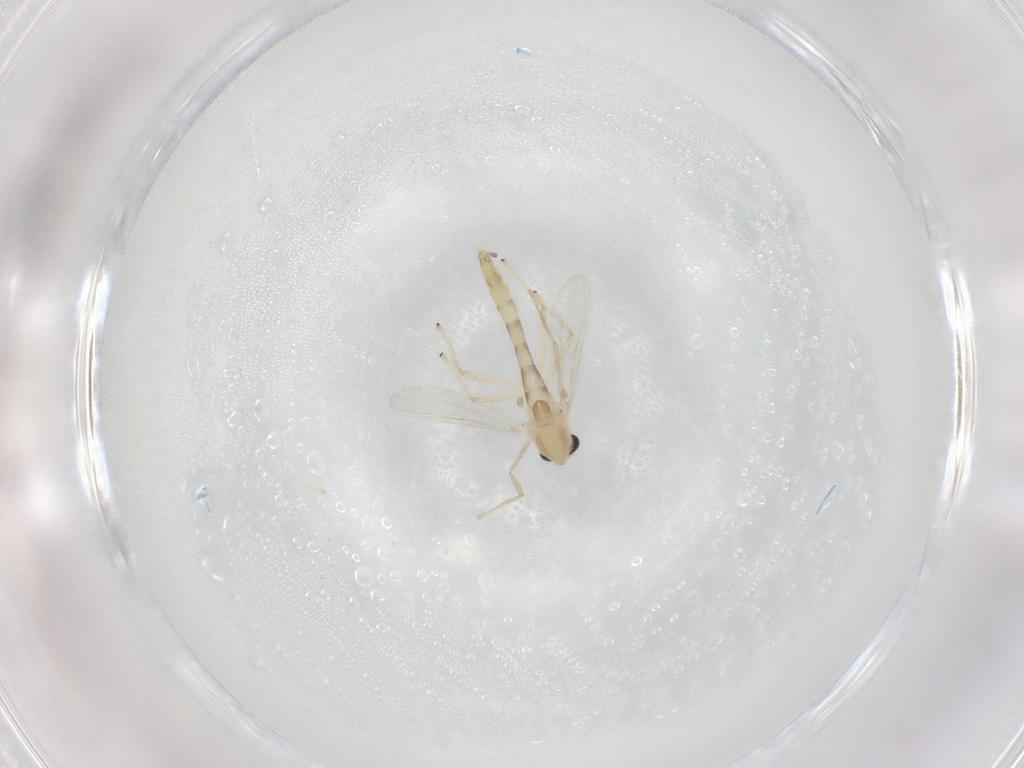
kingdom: Animalia
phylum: Arthropoda
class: Insecta
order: Diptera
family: Chironomidae
